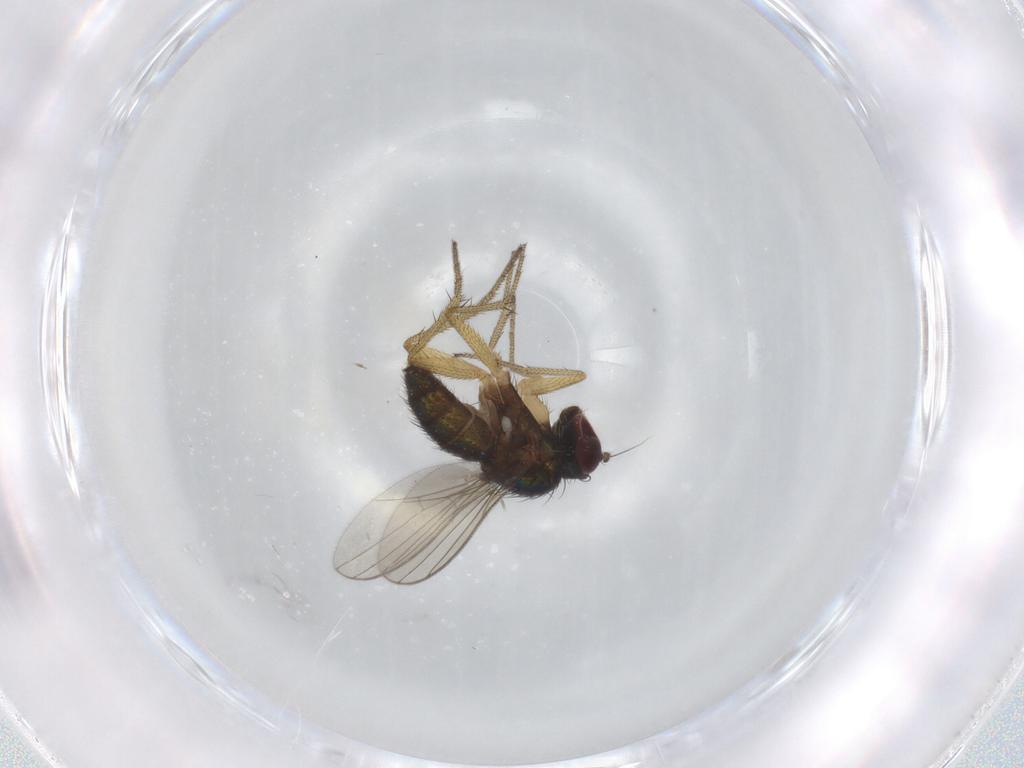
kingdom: Animalia
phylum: Arthropoda
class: Insecta
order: Diptera
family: Dolichopodidae
